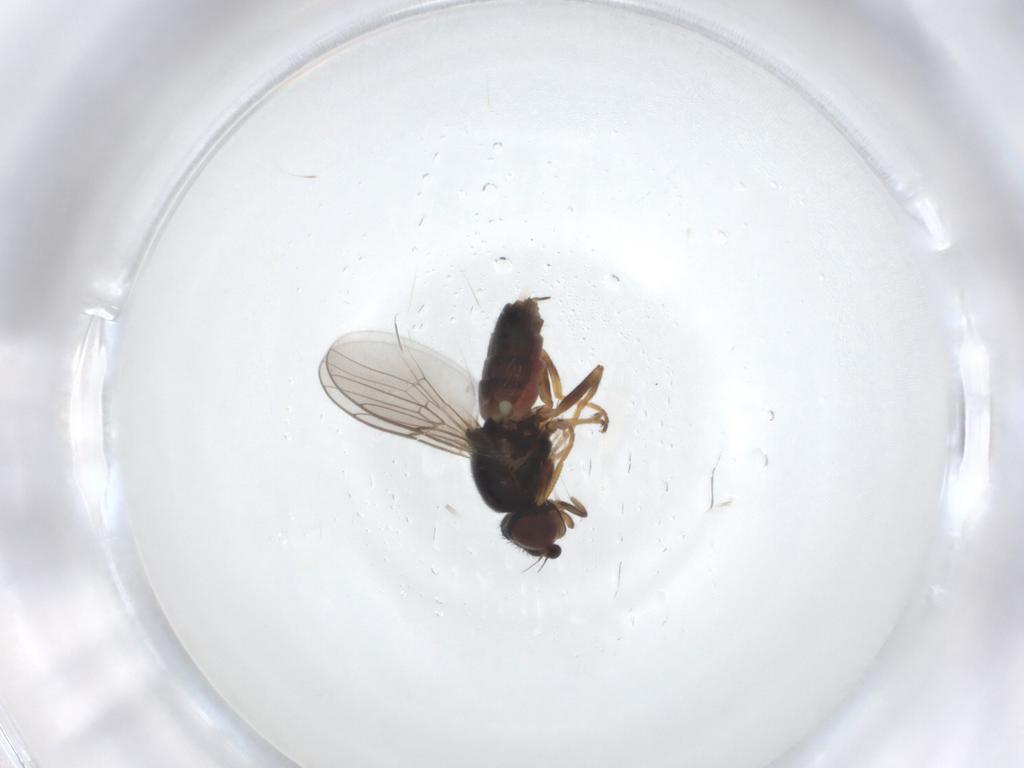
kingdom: Animalia
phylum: Arthropoda
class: Insecta
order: Diptera
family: Chloropidae
